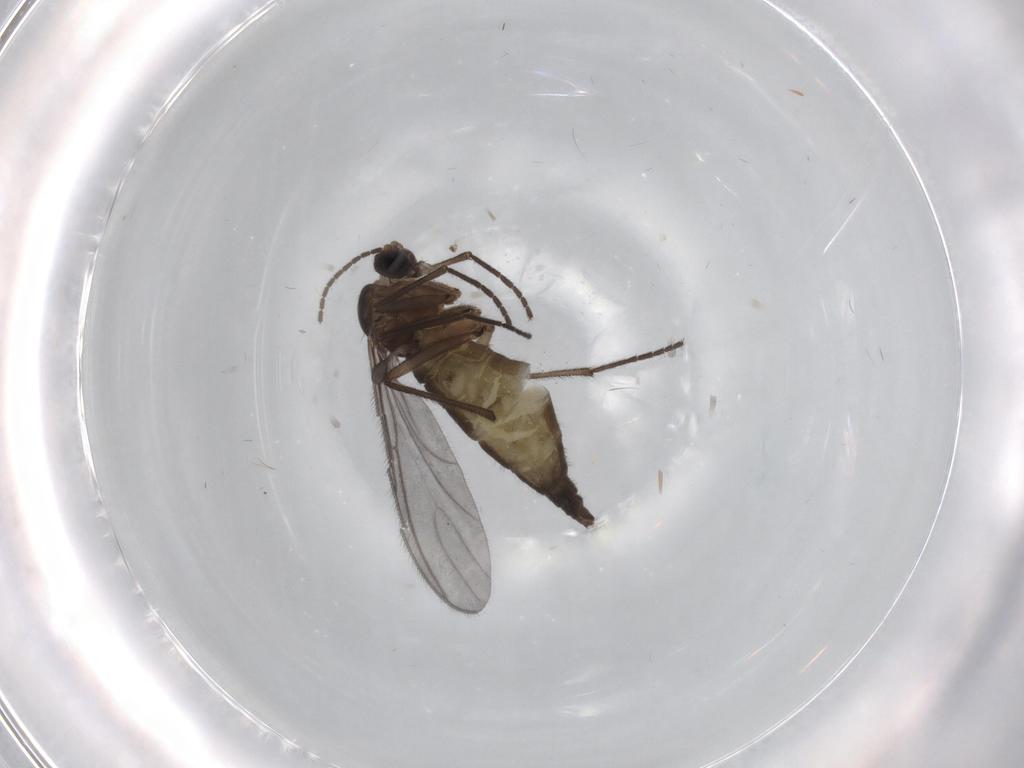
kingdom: Animalia
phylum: Arthropoda
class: Insecta
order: Diptera
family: Sciaridae
